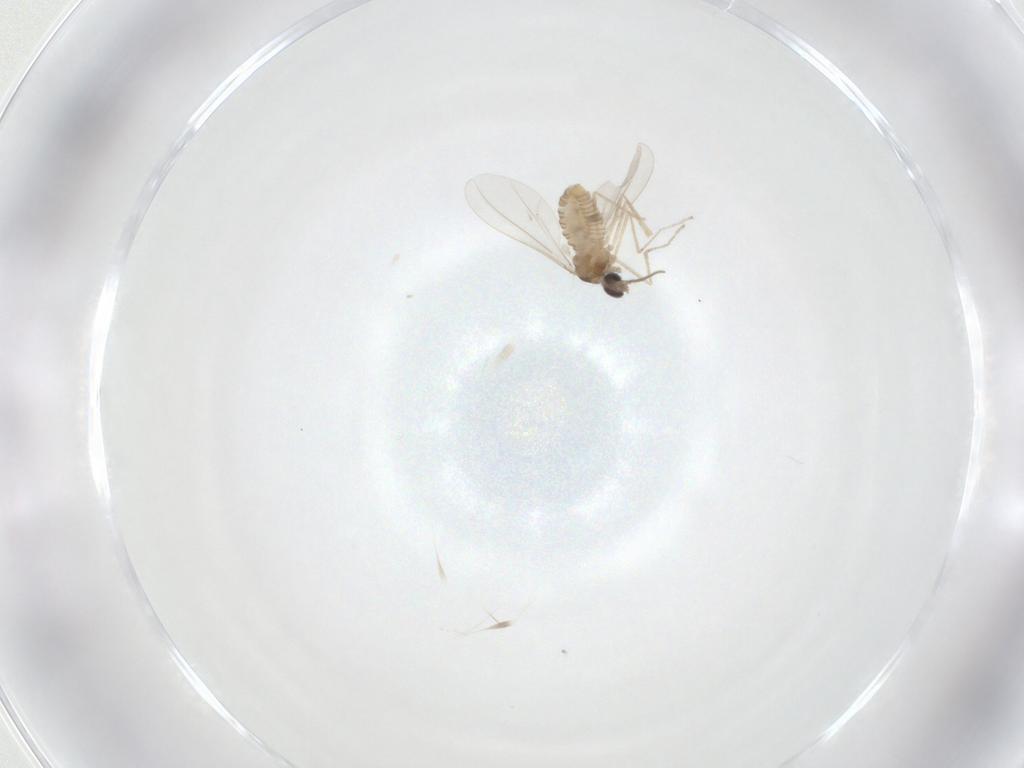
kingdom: Animalia
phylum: Arthropoda
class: Insecta
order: Diptera
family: Cecidomyiidae
